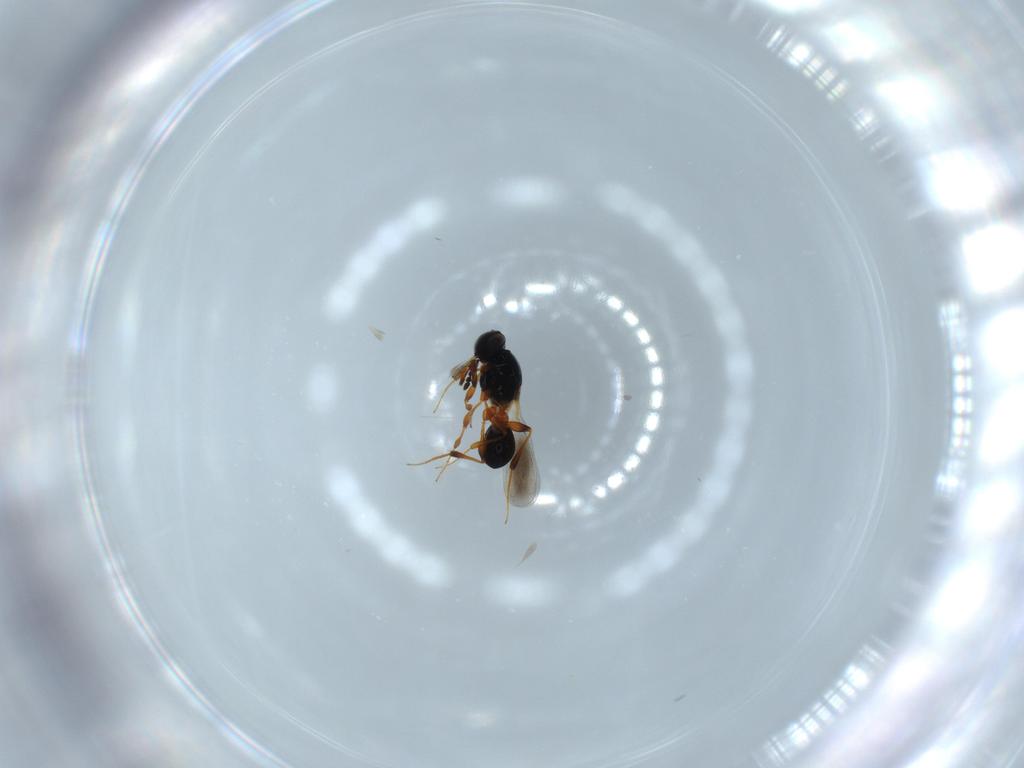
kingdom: Animalia
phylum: Arthropoda
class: Insecta
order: Hymenoptera
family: Platygastridae
